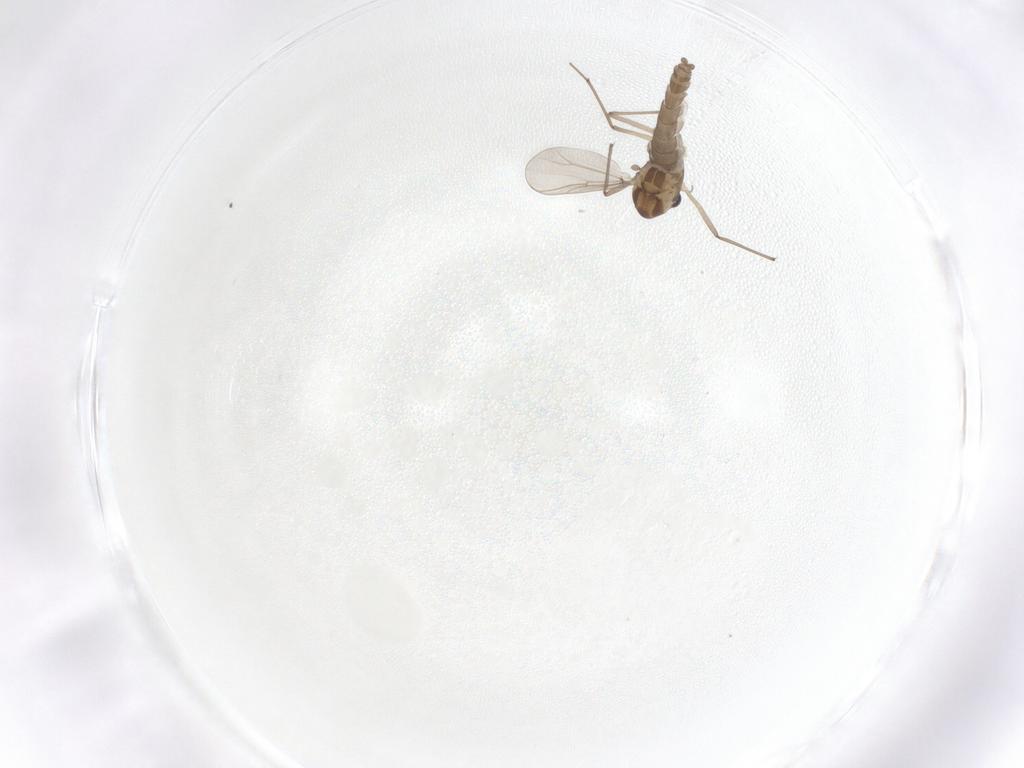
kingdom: Animalia
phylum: Arthropoda
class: Insecta
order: Diptera
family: Chironomidae
